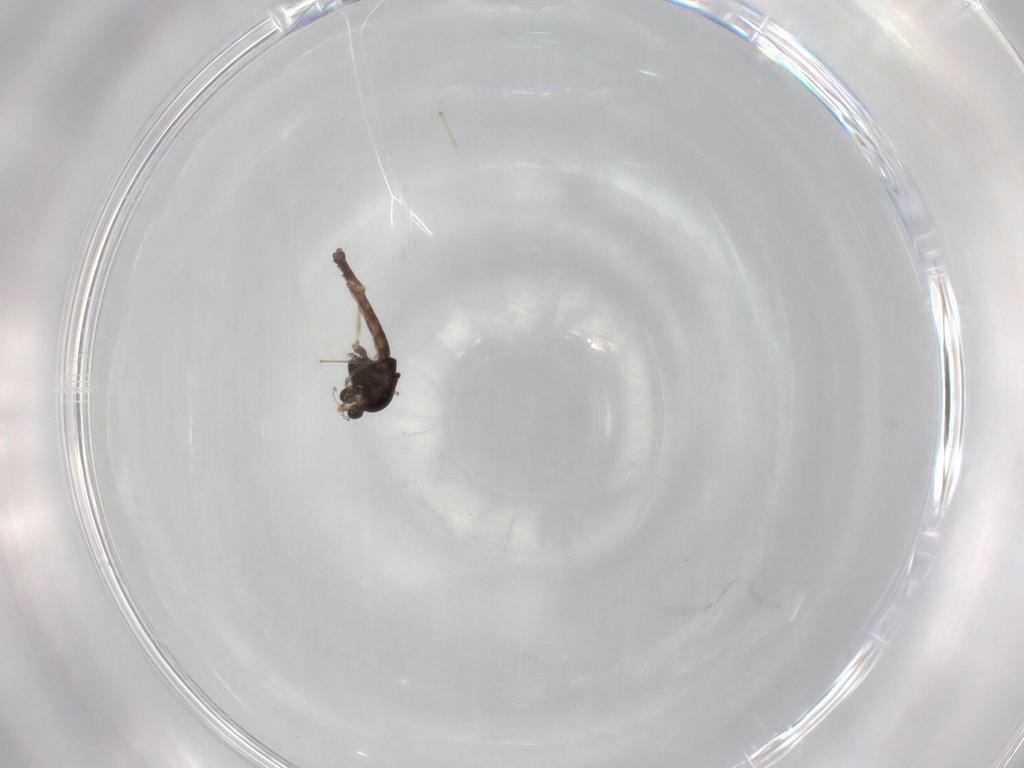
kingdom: Animalia
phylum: Arthropoda
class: Insecta
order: Diptera
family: Chironomidae
